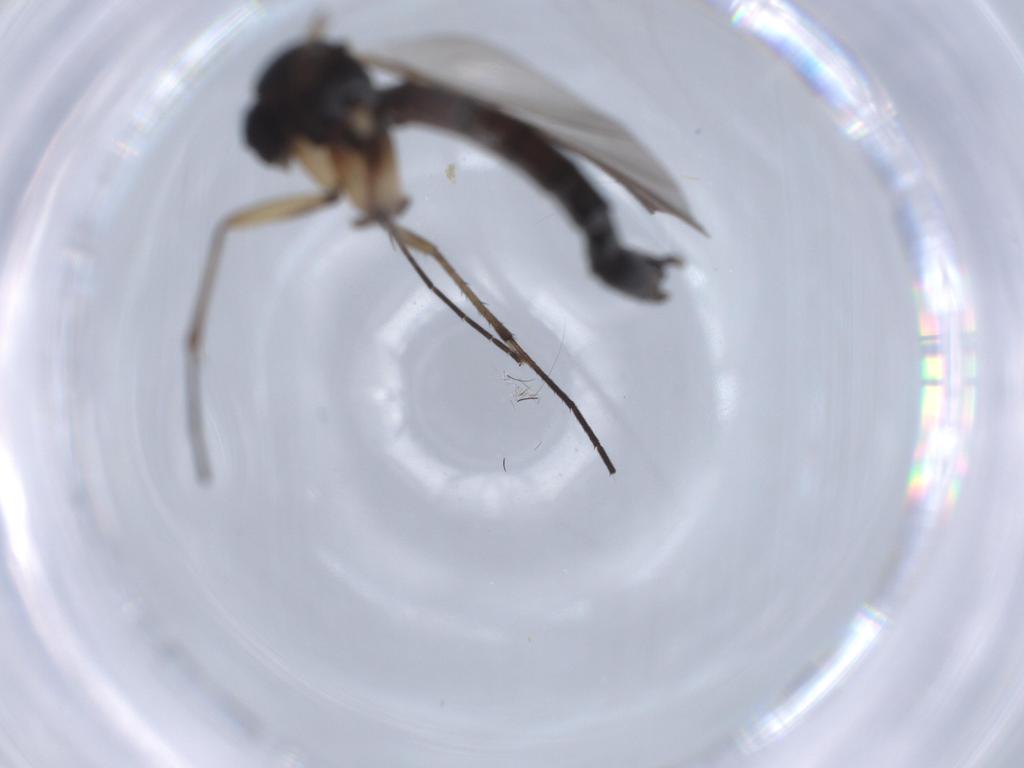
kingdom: Animalia
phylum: Arthropoda
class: Insecta
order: Diptera
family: Chironomidae
